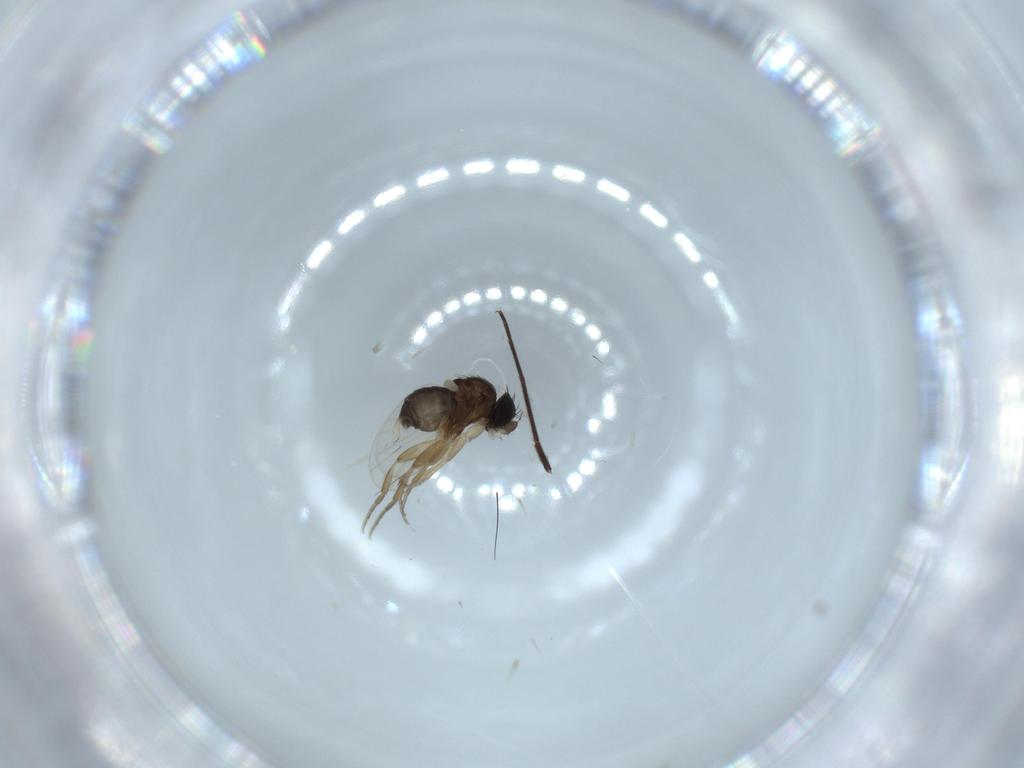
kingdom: Animalia
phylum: Arthropoda
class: Insecta
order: Diptera
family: Phoridae
